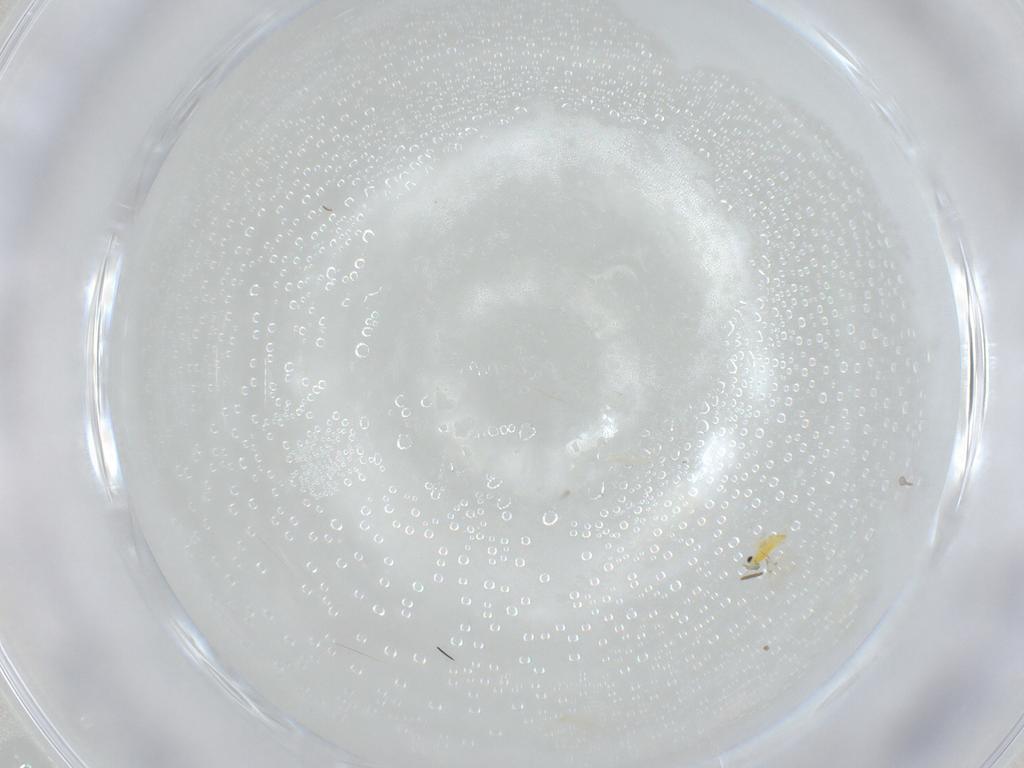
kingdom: Animalia
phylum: Arthropoda
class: Insecta
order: Hymenoptera
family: Trichogrammatidae
